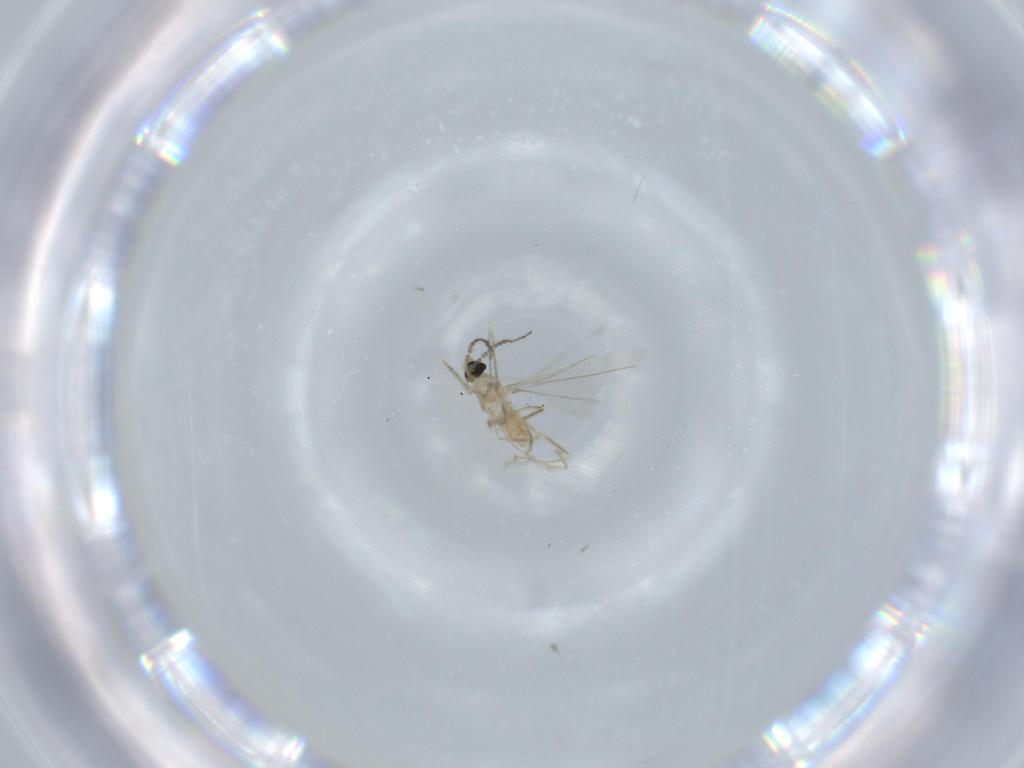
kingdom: Animalia
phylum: Arthropoda
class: Insecta
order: Diptera
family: Cecidomyiidae
